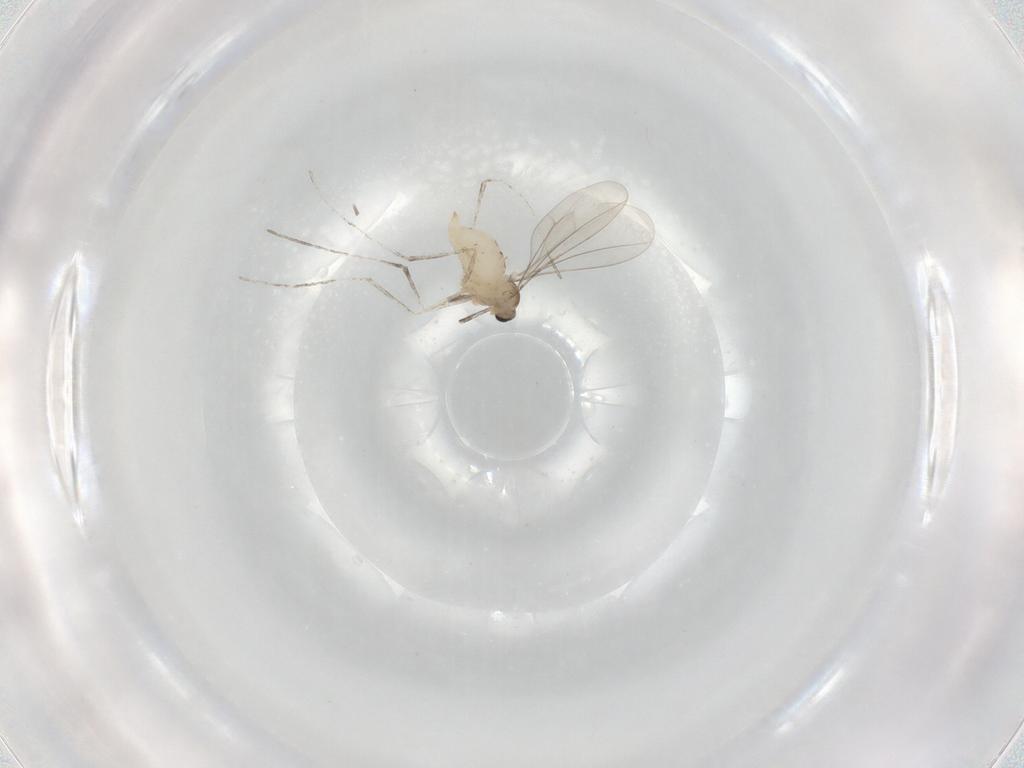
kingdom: Animalia
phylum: Arthropoda
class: Insecta
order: Diptera
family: Cecidomyiidae
